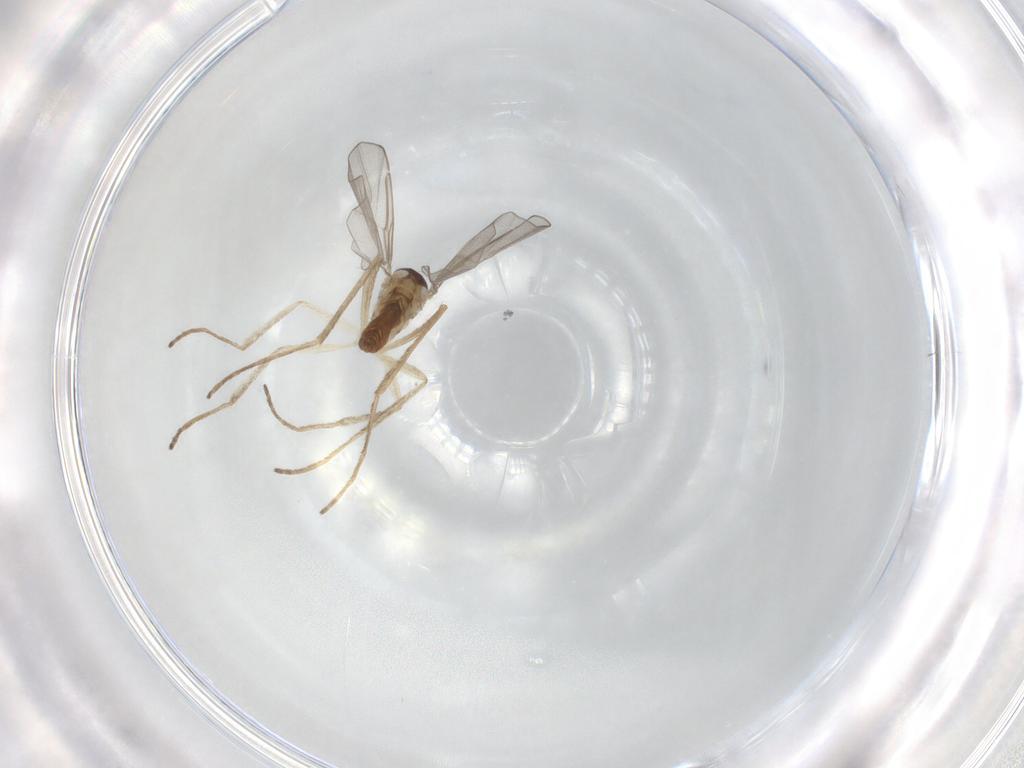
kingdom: Animalia
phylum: Arthropoda
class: Insecta
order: Diptera
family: Cecidomyiidae
